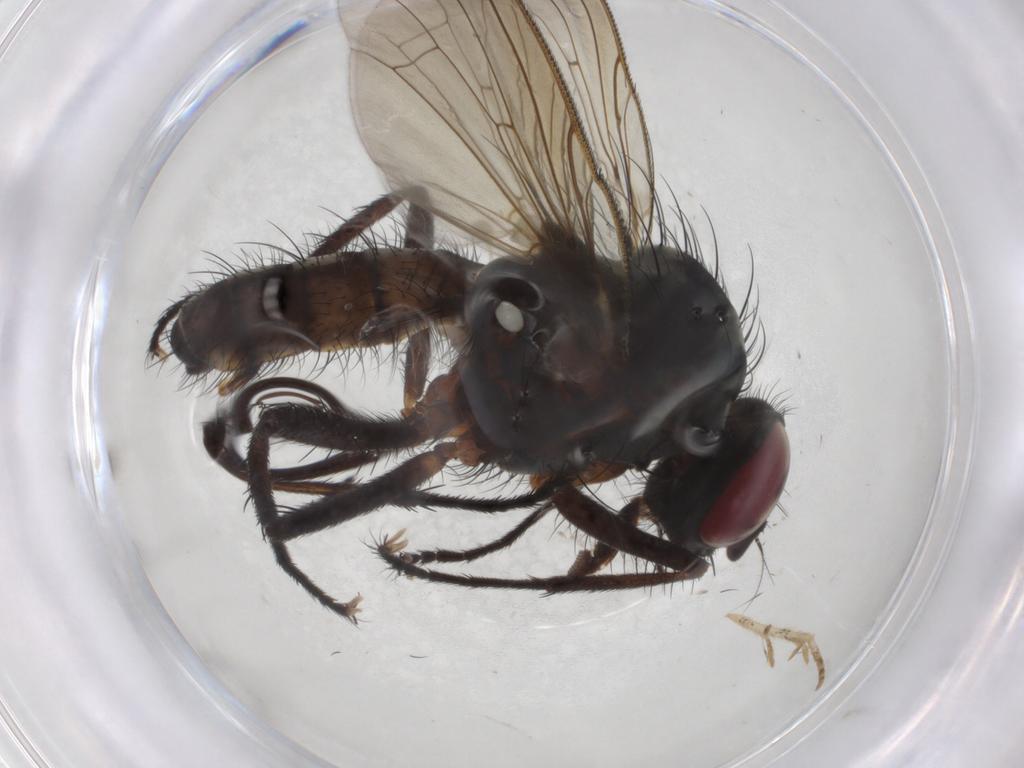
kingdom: Animalia
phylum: Arthropoda
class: Insecta
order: Diptera
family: Anthomyiidae
